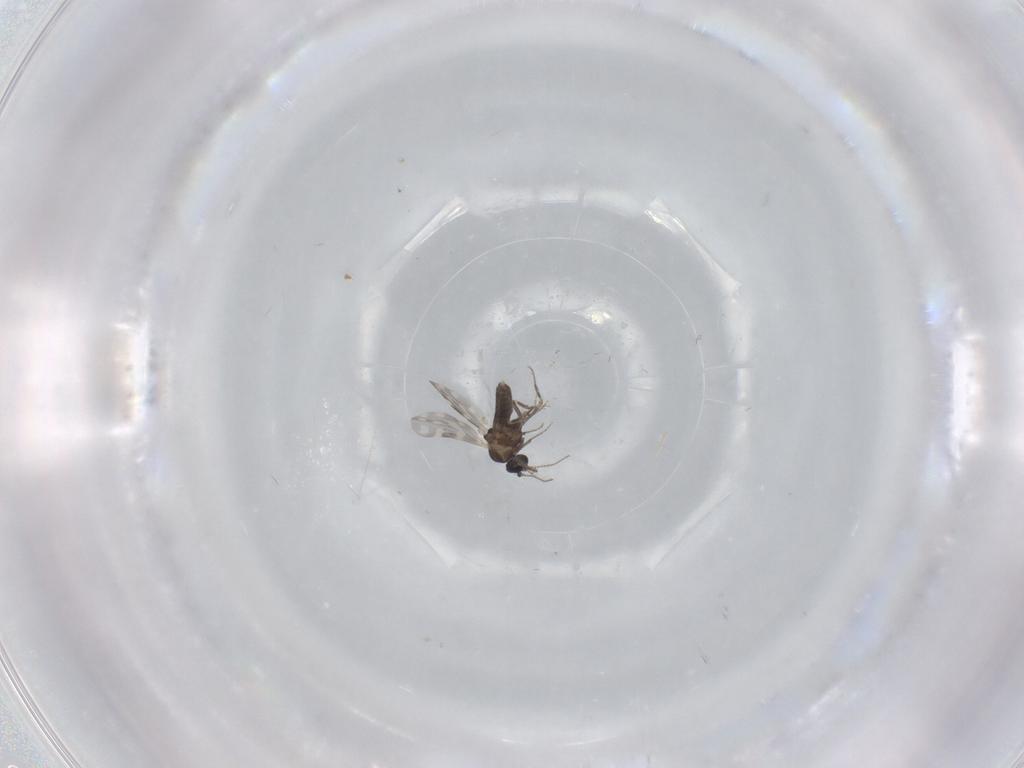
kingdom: Animalia
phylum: Arthropoda
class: Insecta
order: Diptera
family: Ceratopogonidae
